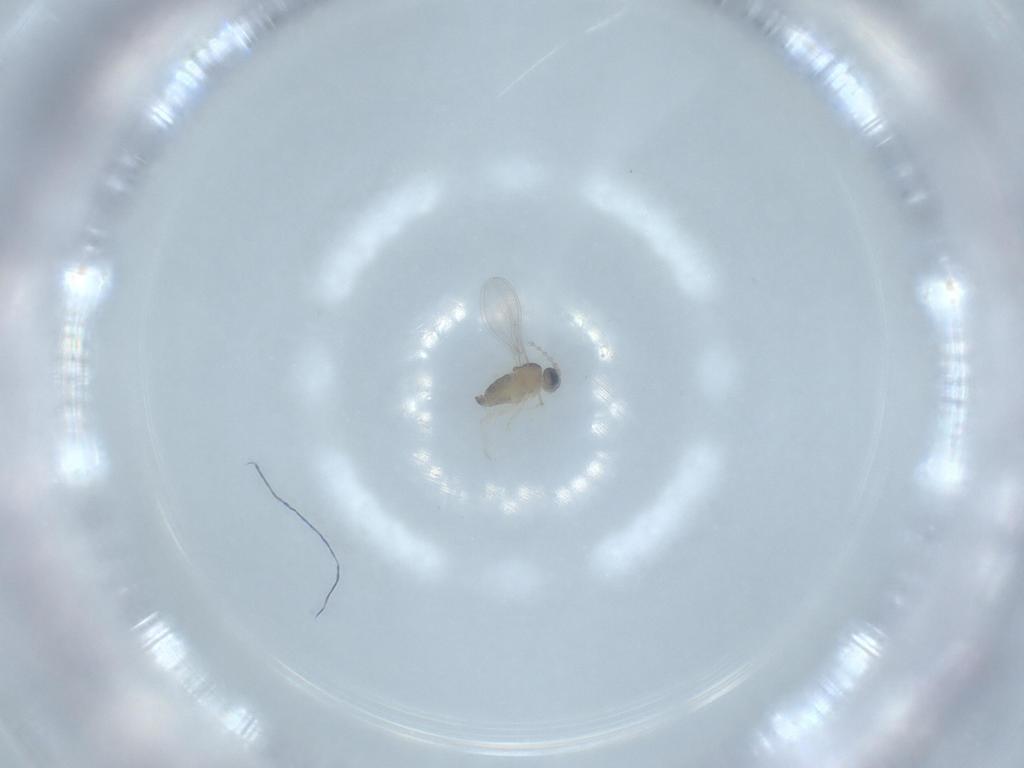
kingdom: Animalia
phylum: Arthropoda
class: Insecta
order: Diptera
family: Cecidomyiidae
